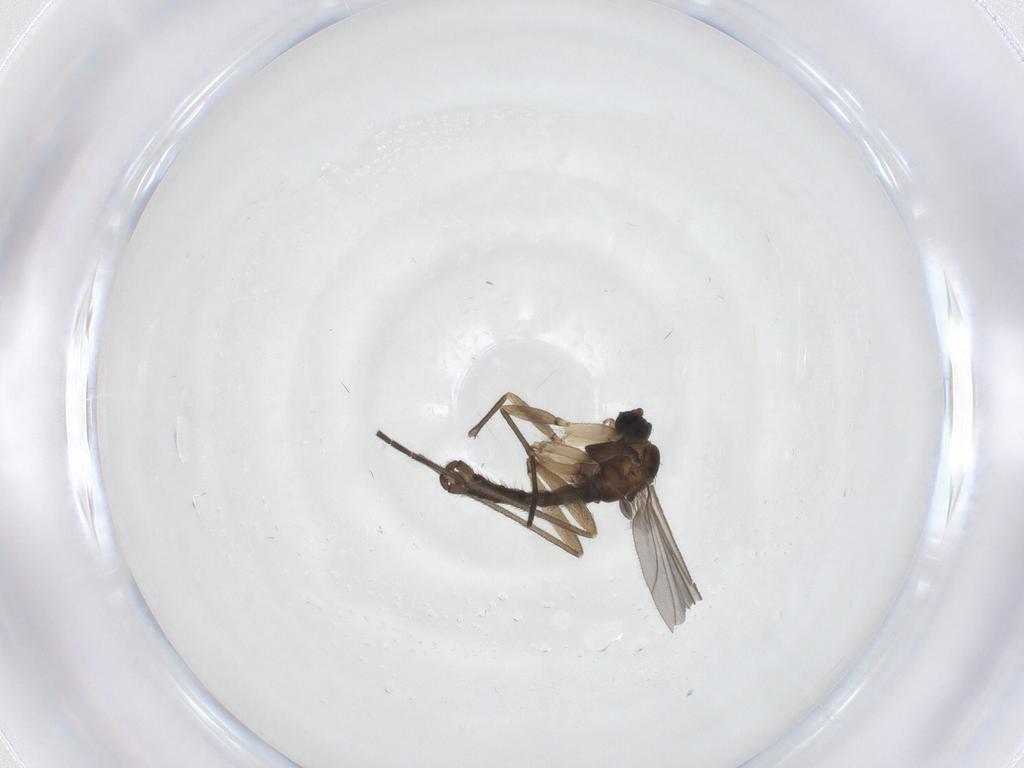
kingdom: Animalia
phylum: Arthropoda
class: Insecta
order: Diptera
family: Sciaridae
